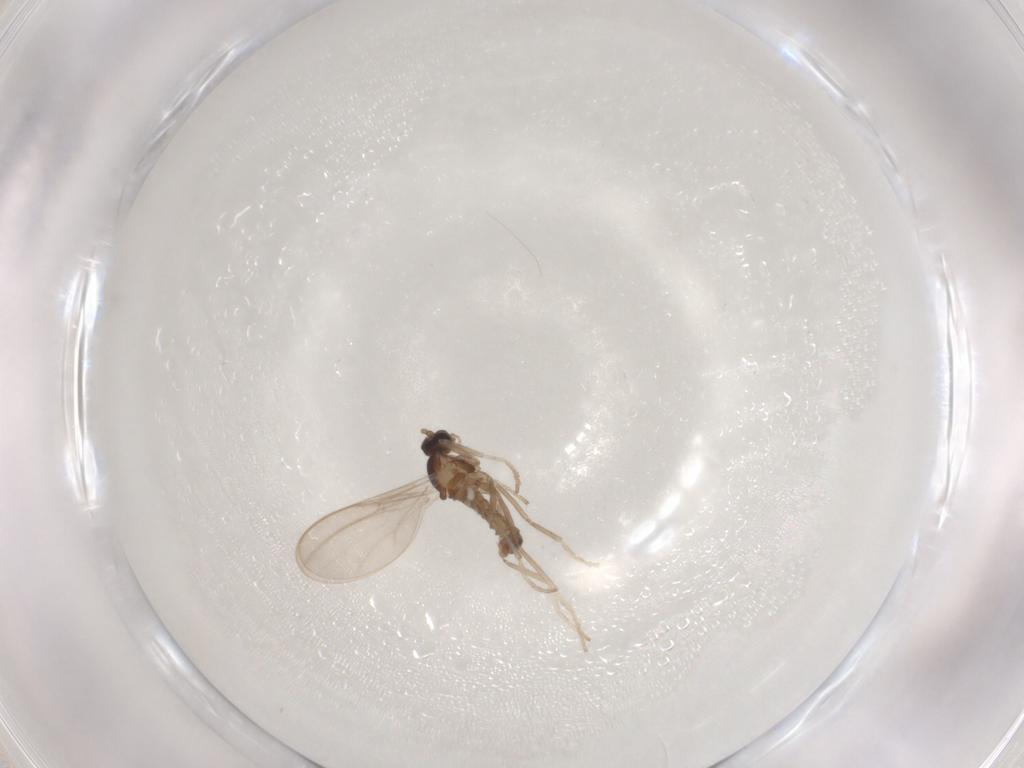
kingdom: Animalia
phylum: Arthropoda
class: Insecta
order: Diptera
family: Cecidomyiidae
